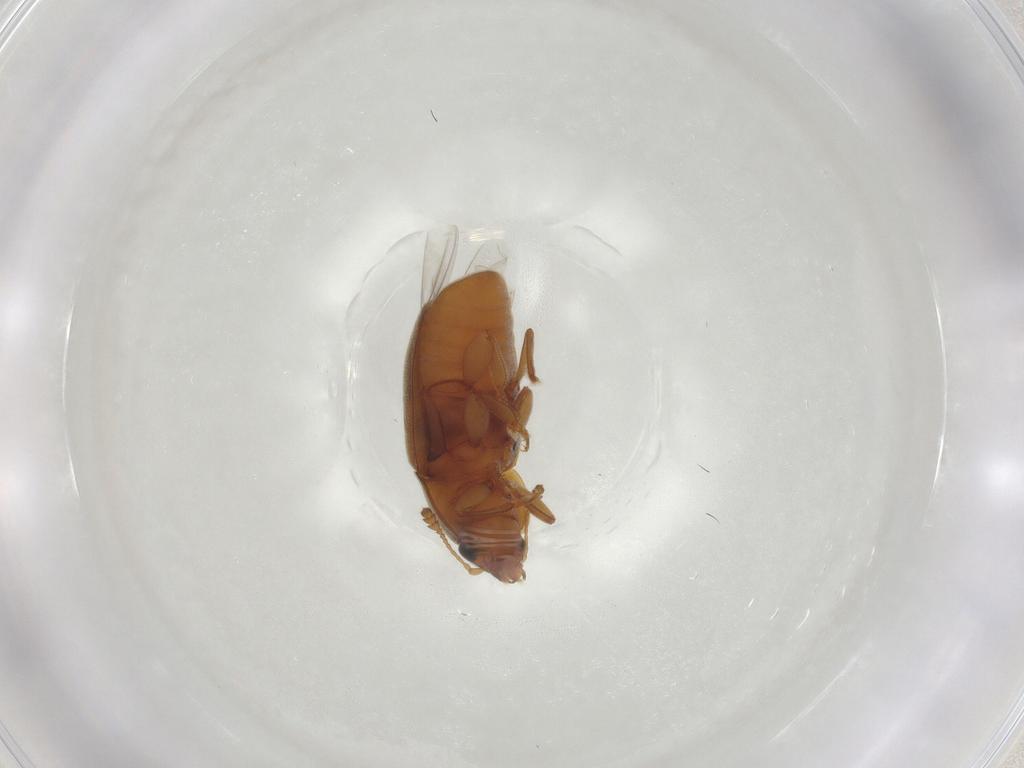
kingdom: Animalia
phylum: Arthropoda
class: Insecta
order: Coleoptera
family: Nitidulidae
